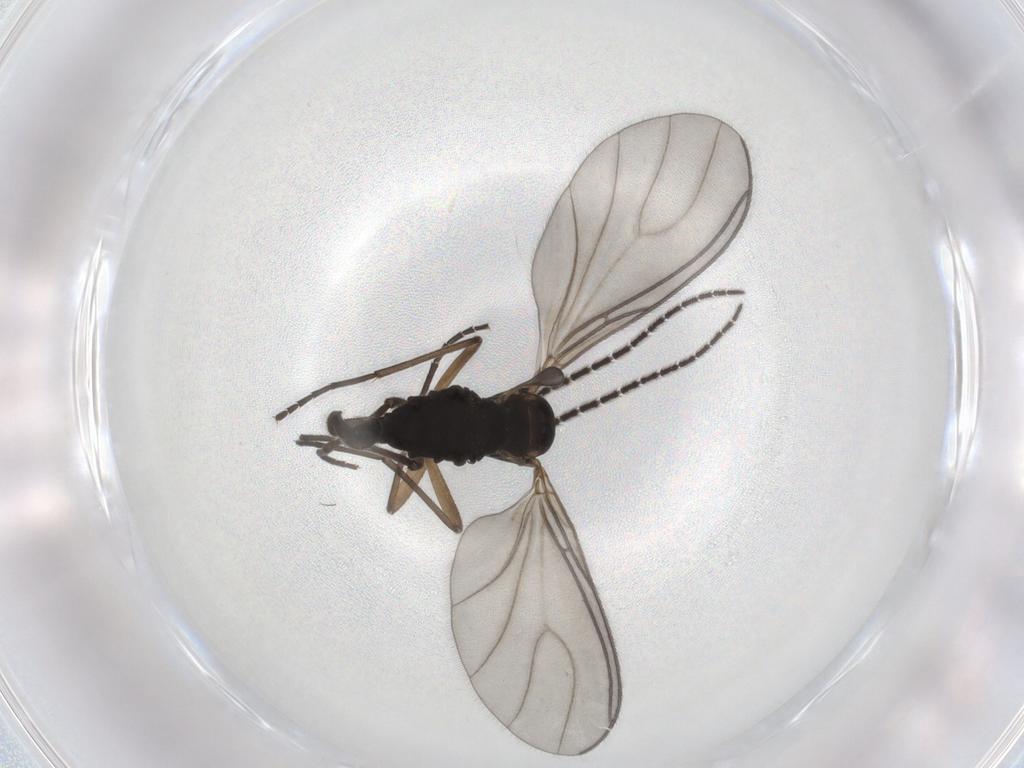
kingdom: Animalia
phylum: Arthropoda
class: Insecta
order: Diptera
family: Sciaridae
